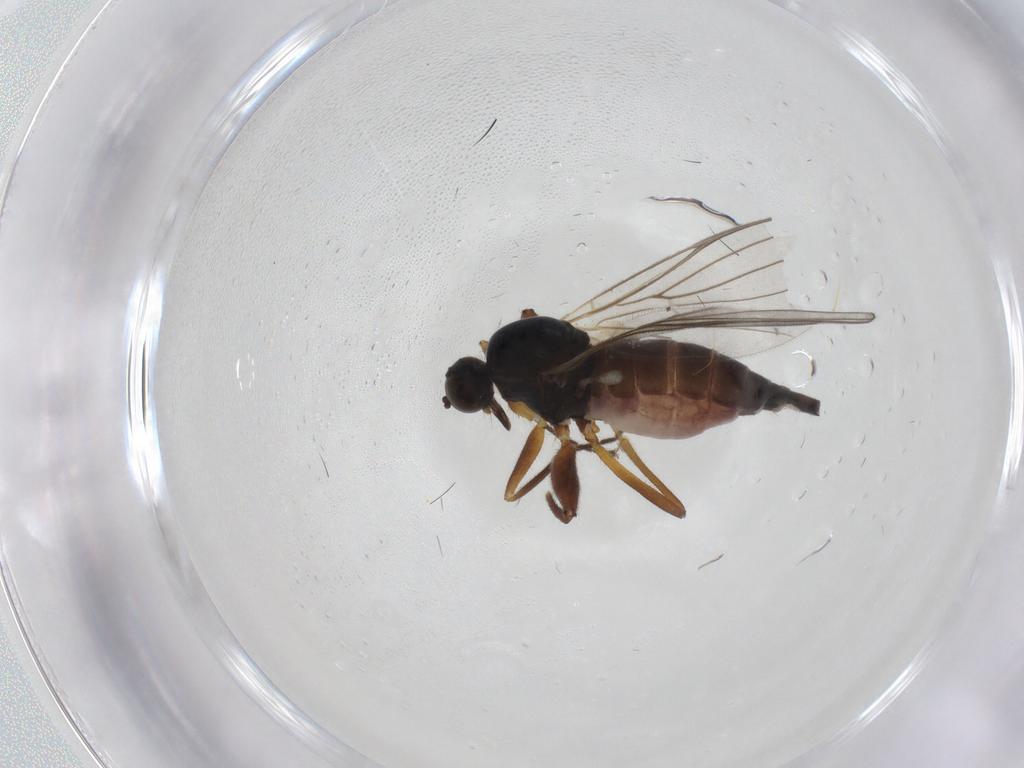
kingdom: Animalia
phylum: Arthropoda
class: Insecta
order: Diptera
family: Hybotidae
